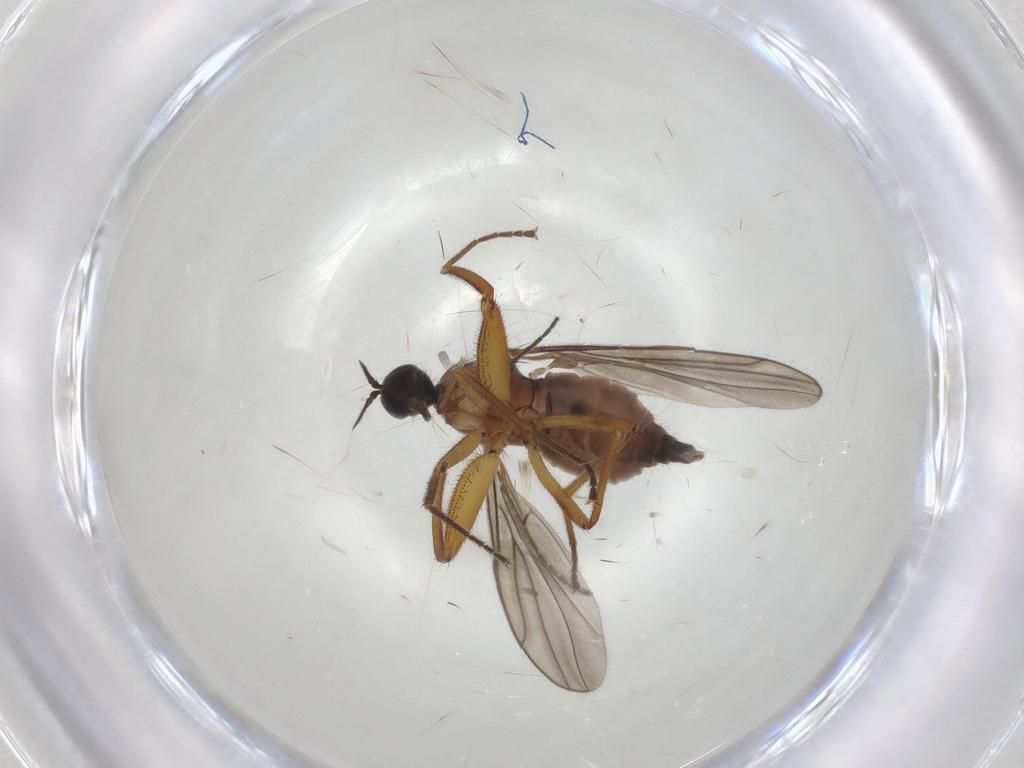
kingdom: Animalia
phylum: Arthropoda
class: Insecta
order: Diptera
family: Hybotidae
